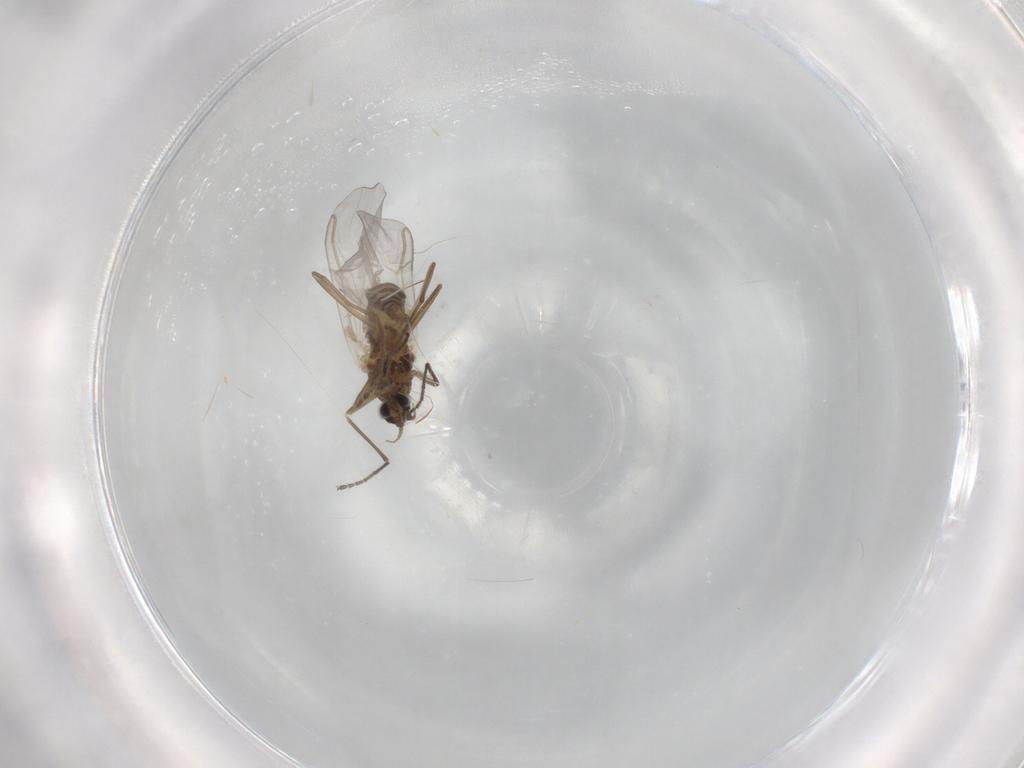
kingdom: Animalia
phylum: Arthropoda
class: Insecta
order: Diptera
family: Cecidomyiidae
